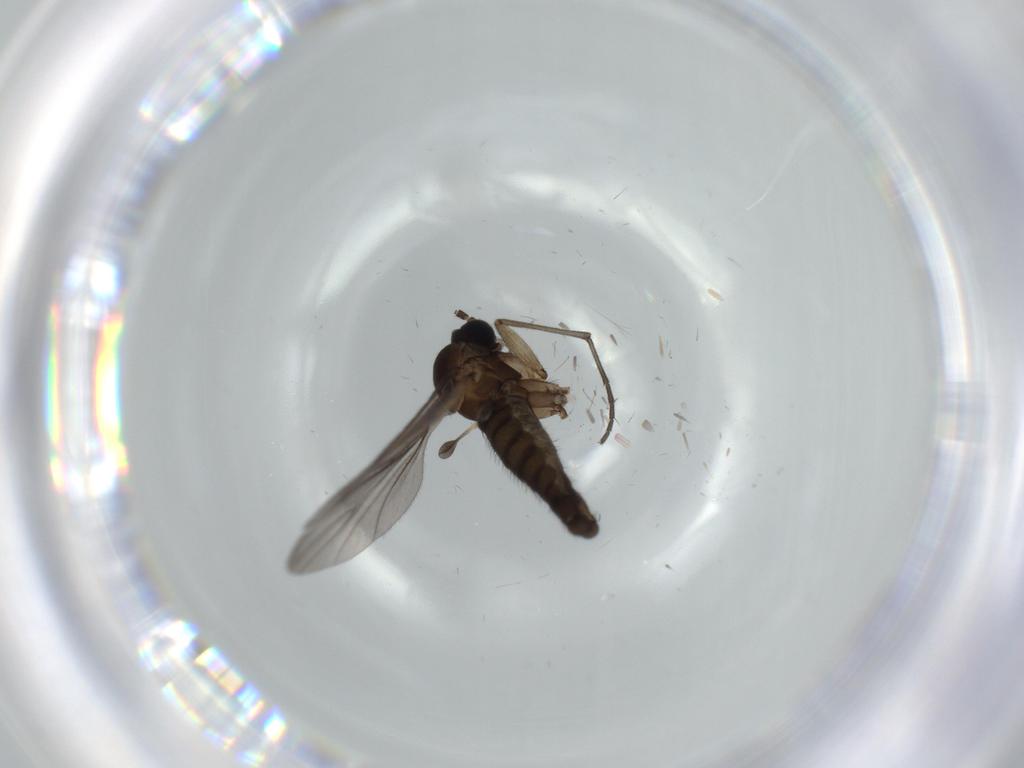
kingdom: Animalia
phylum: Arthropoda
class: Insecta
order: Diptera
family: Sciaridae
